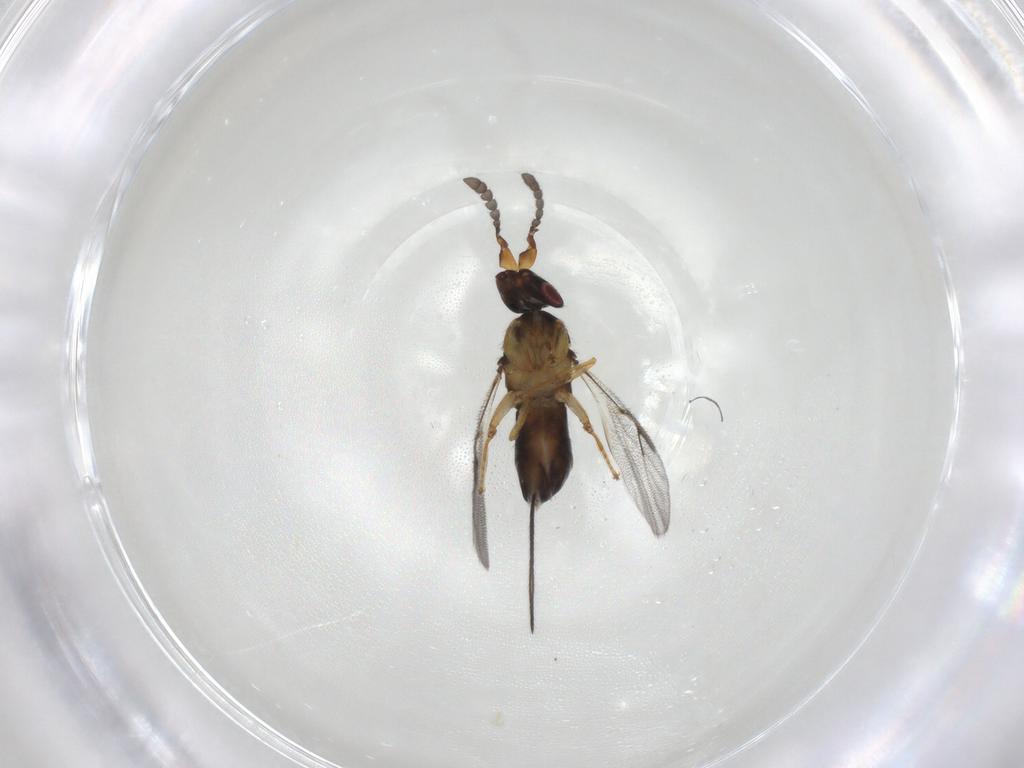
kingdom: Animalia
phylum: Arthropoda
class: Insecta
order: Hymenoptera
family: Agaonidae
